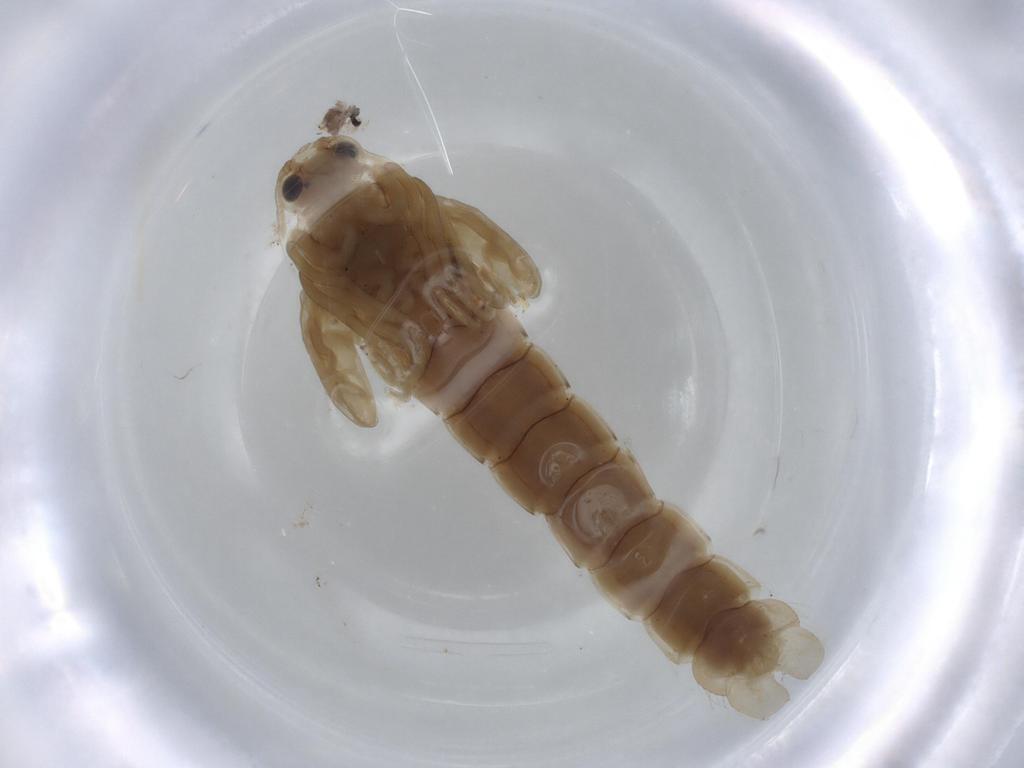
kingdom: Animalia
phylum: Arthropoda
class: Insecta
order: Diptera
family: Chironomidae
